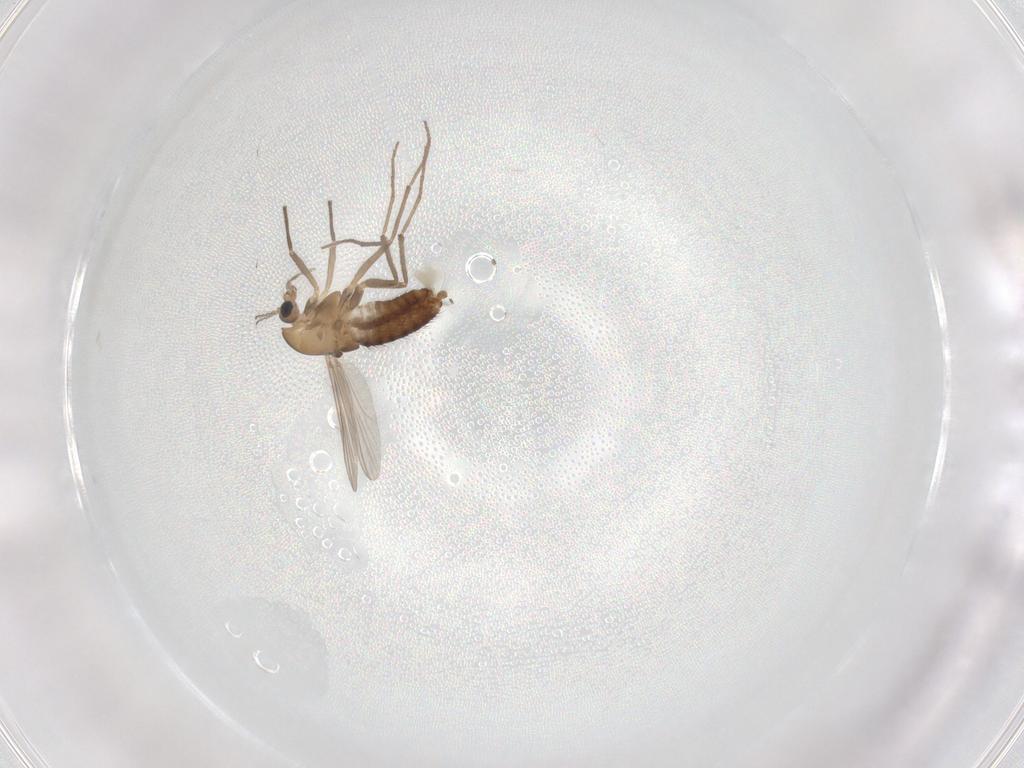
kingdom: Animalia
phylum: Arthropoda
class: Insecta
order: Diptera
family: Chironomidae
